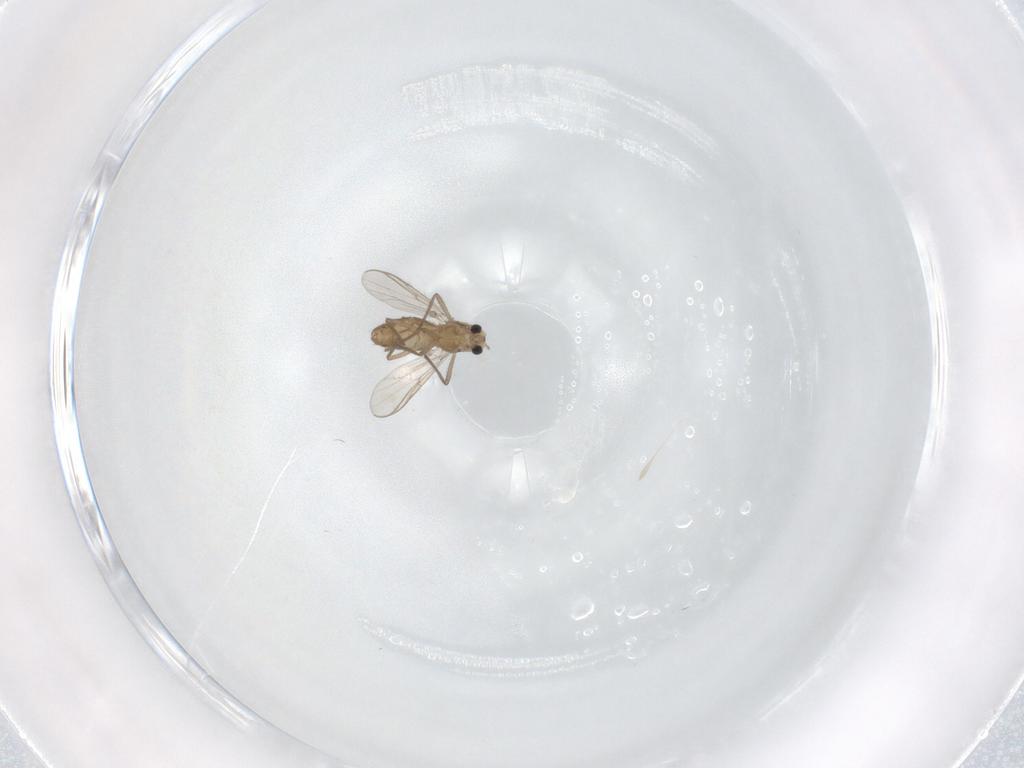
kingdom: Animalia
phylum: Arthropoda
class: Insecta
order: Diptera
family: Chironomidae
